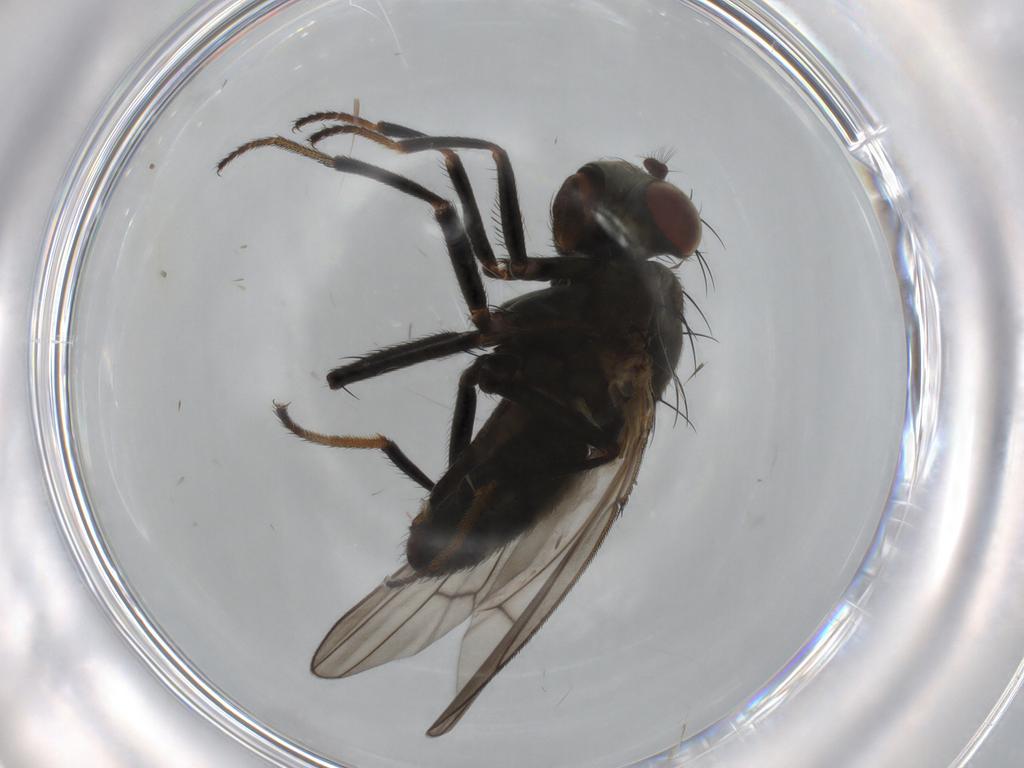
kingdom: Animalia
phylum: Arthropoda
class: Insecta
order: Diptera
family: Ephydridae
